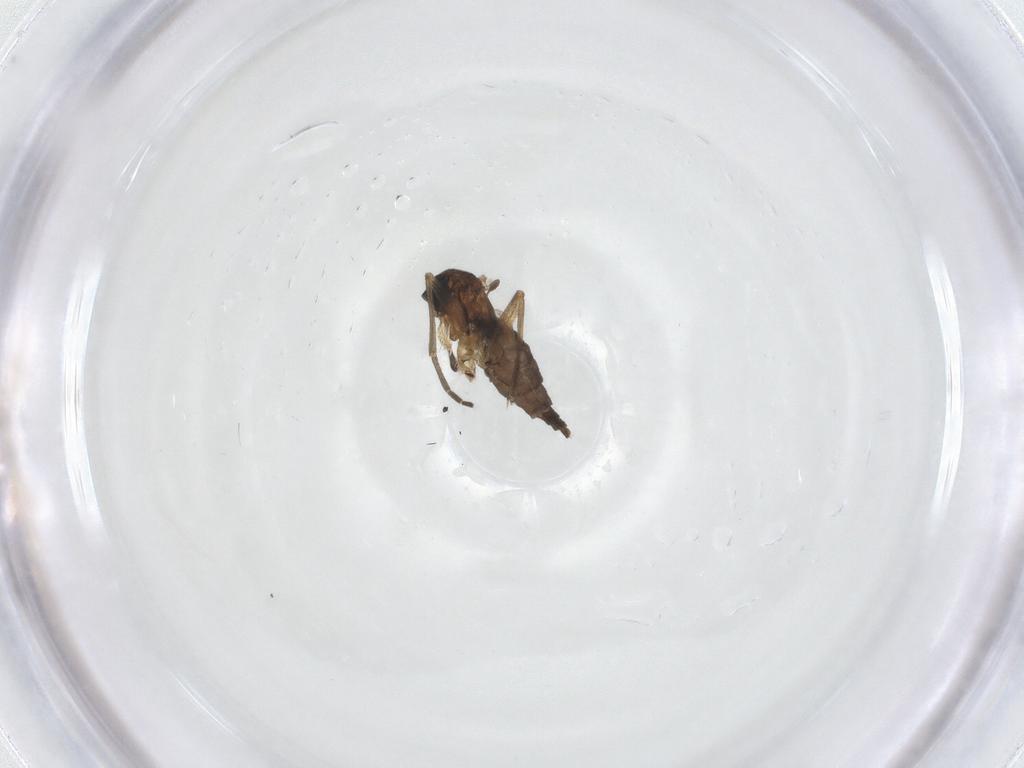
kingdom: Animalia
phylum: Arthropoda
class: Insecta
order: Diptera
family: Sciaridae
